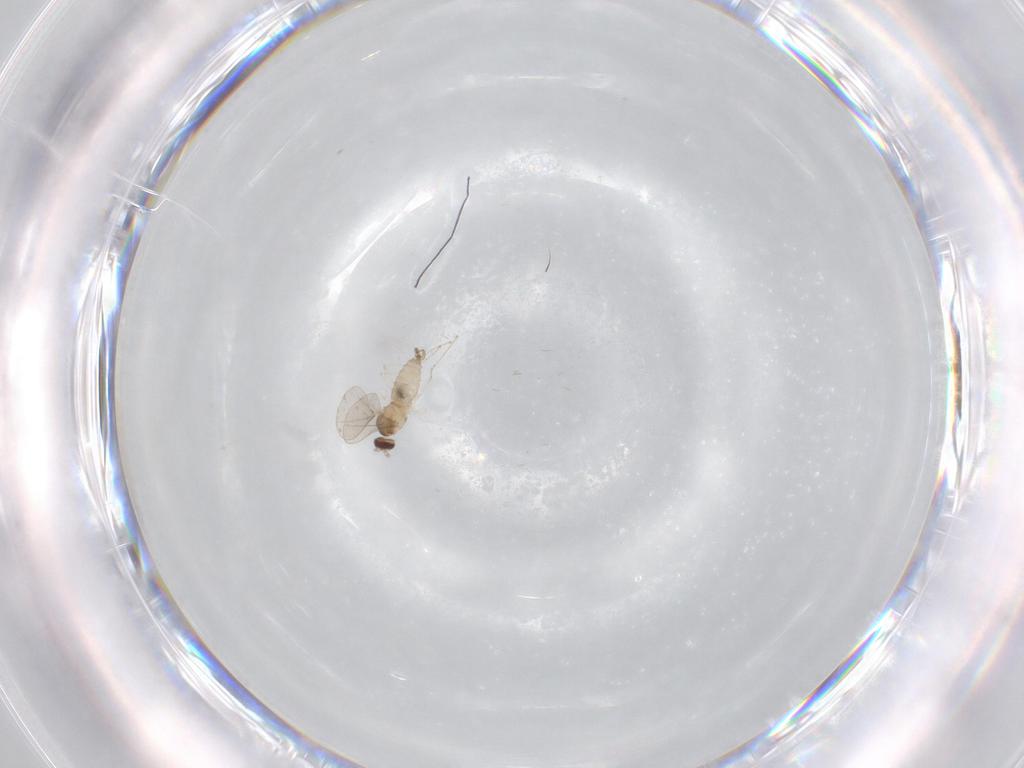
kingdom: Animalia
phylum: Arthropoda
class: Insecta
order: Diptera
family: Cecidomyiidae
